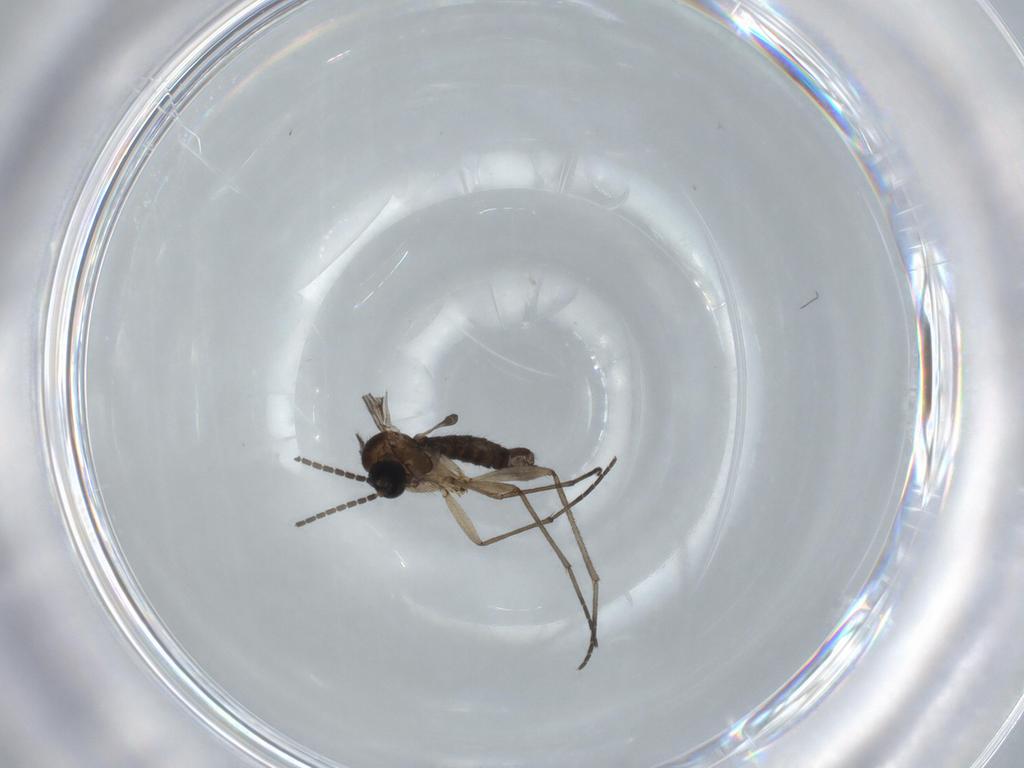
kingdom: Animalia
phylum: Arthropoda
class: Insecta
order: Diptera
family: Sciaridae
